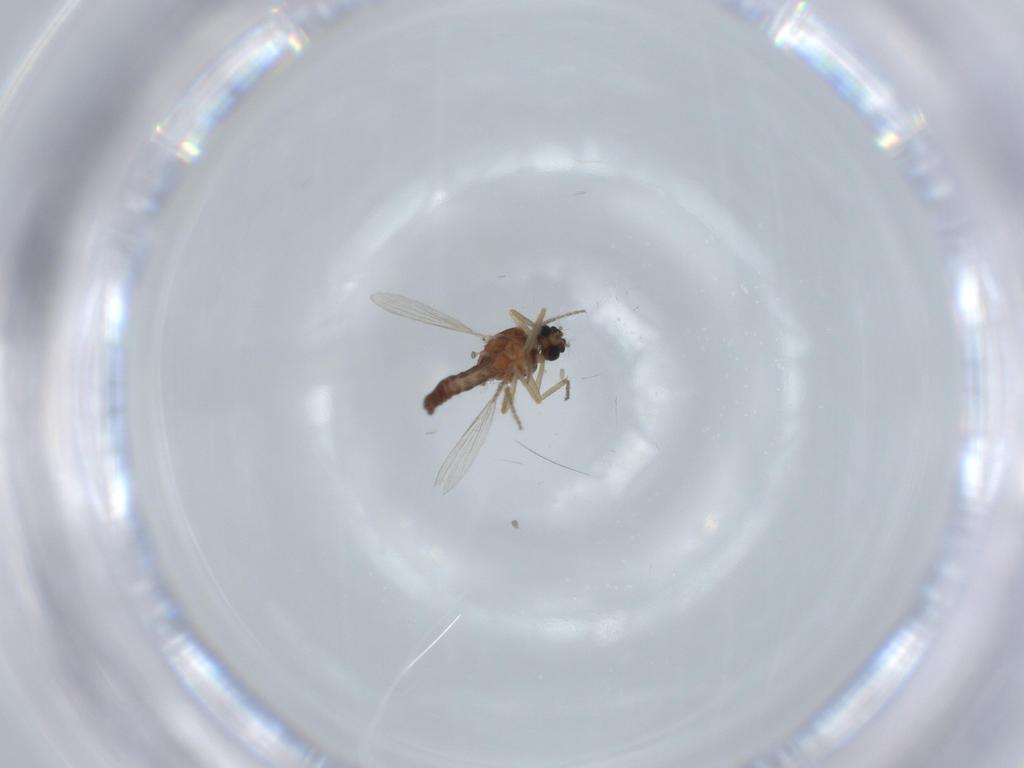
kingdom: Animalia
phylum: Arthropoda
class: Insecta
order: Diptera
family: Ceratopogonidae
